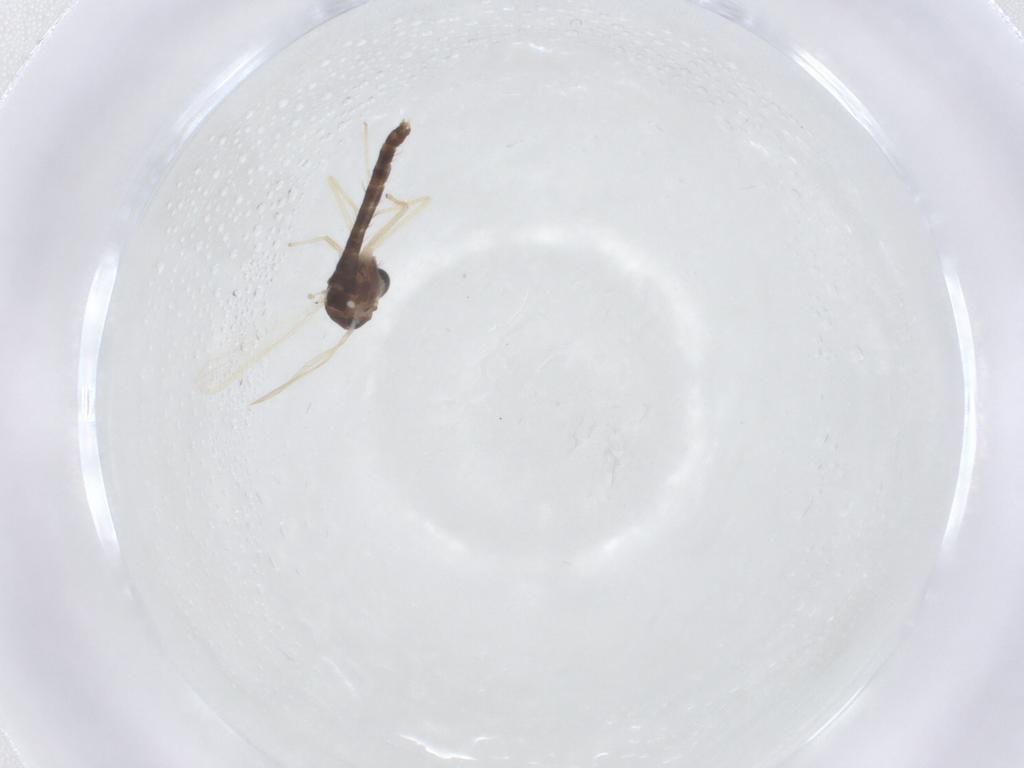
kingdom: Animalia
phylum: Arthropoda
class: Insecta
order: Diptera
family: Chironomidae
